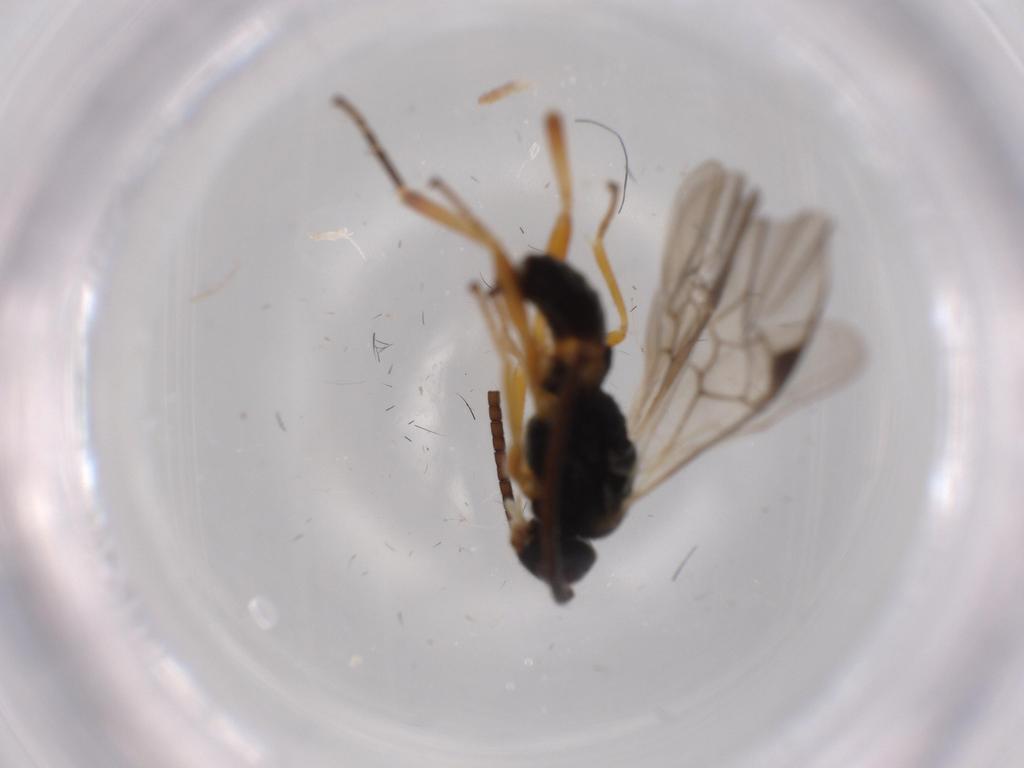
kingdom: Animalia
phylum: Arthropoda
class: Insecta
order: Hymenoptera
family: Braconidae
